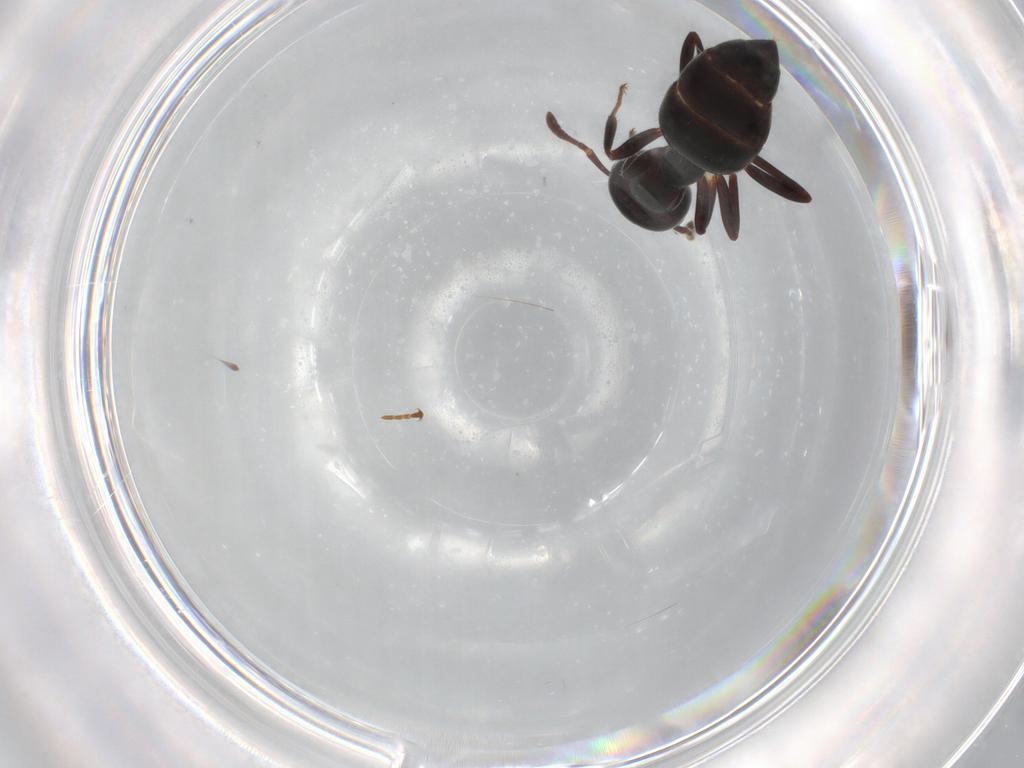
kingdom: Animalia
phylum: Arthropoda
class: Insecta
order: Hymenoptera
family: Formicidae
